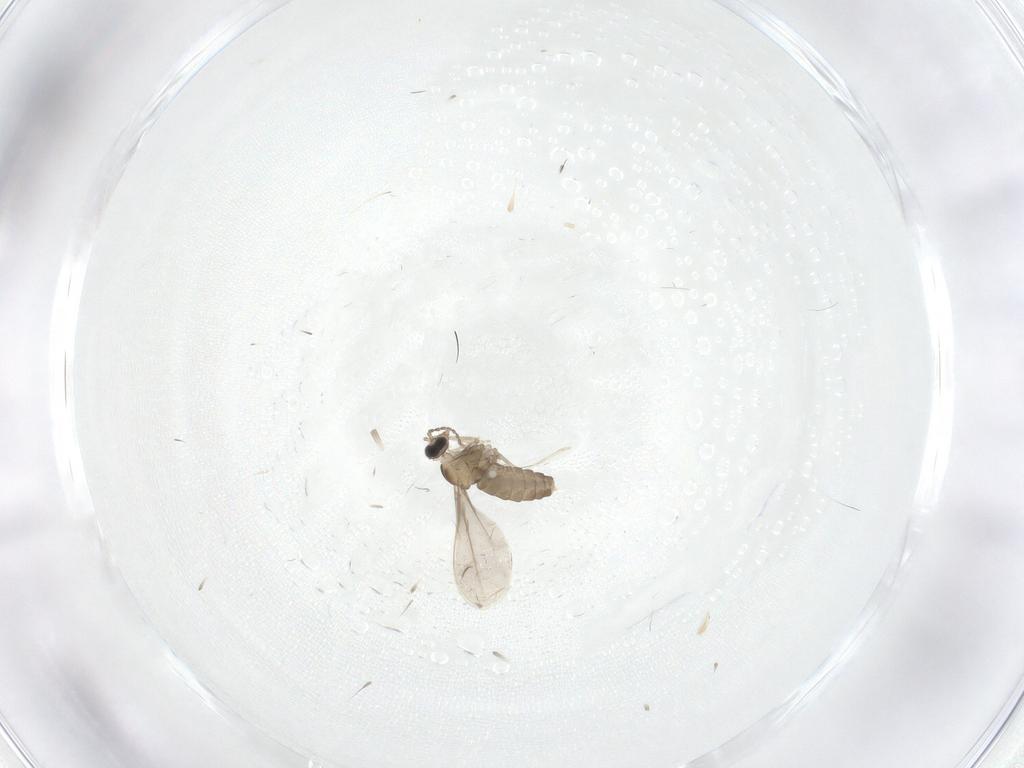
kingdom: Animalia
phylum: Arthropoda
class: Insecta
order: Diptera
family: Cecidomyiidae
